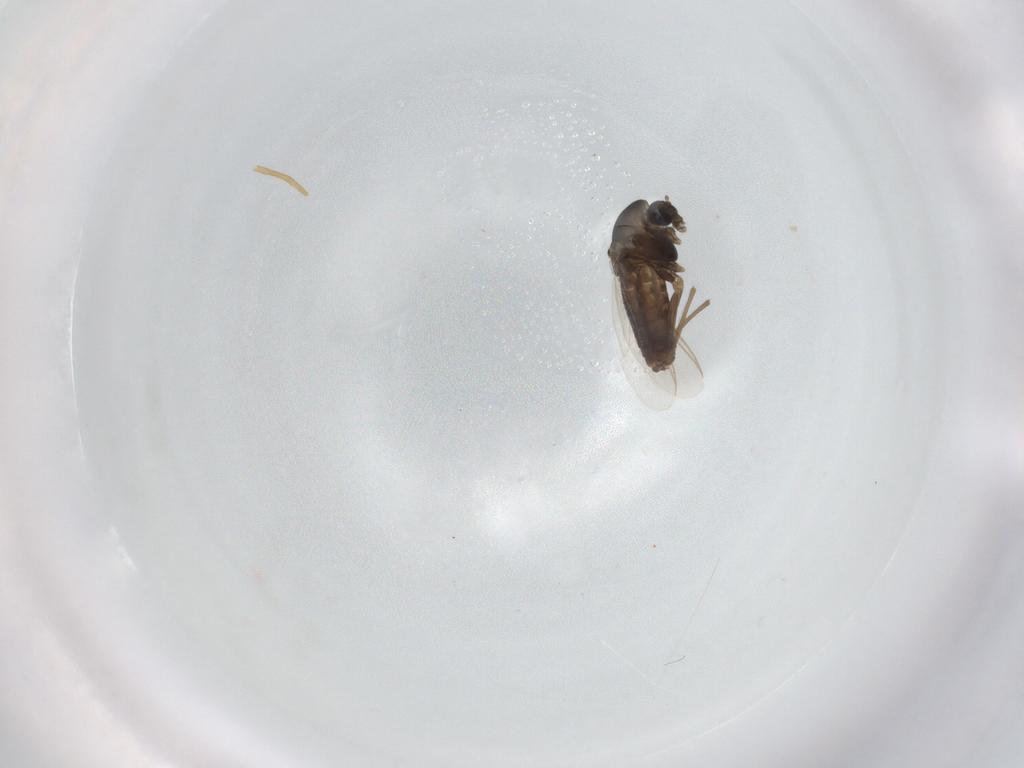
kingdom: Animalia
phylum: Arthropoda
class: Insecta
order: Diptera
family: Chironomidae
